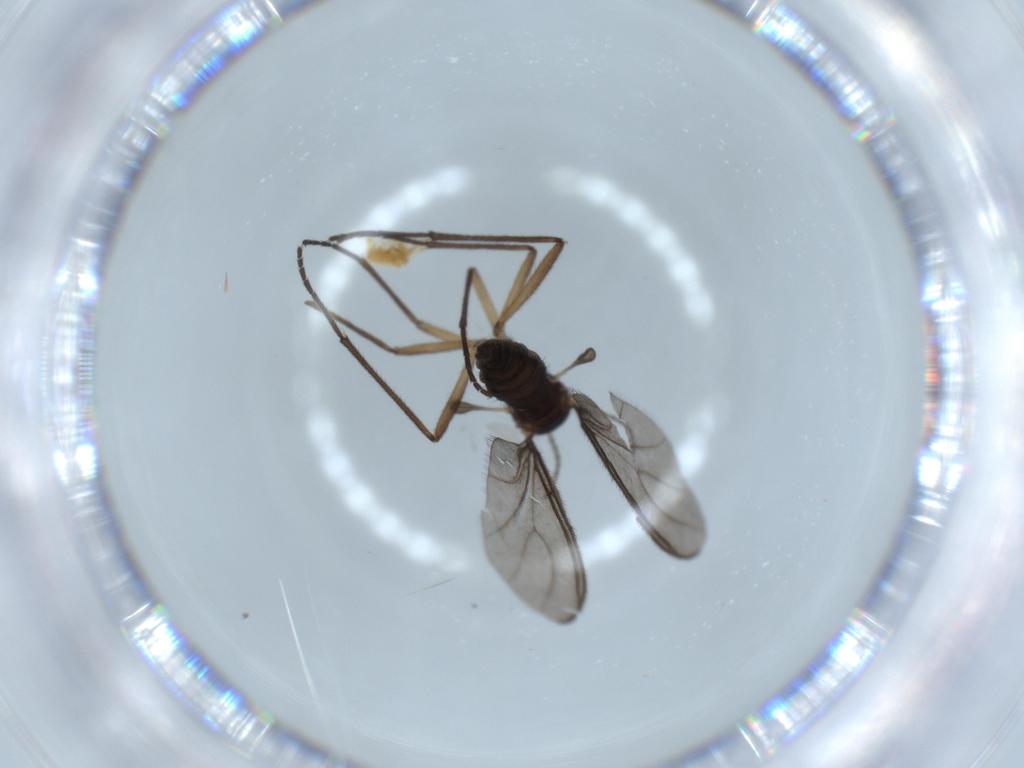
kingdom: Animalia
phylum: Arthropoda
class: Insecta
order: Diptera
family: Sciaridae
